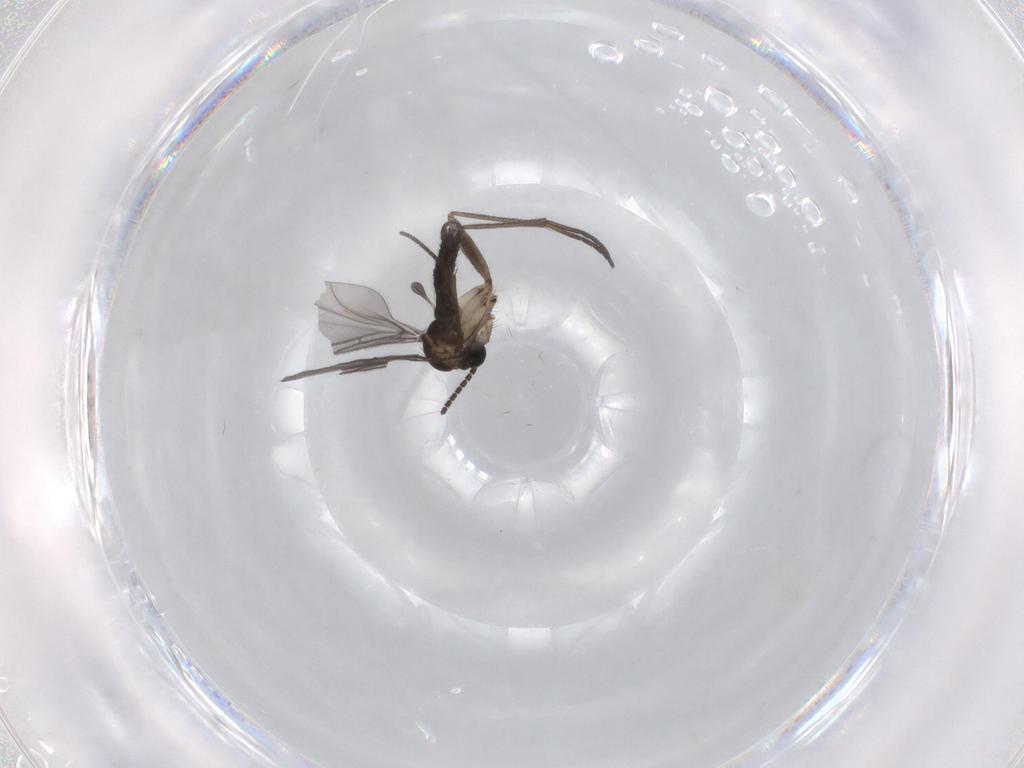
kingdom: Animalia
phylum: Arthropoda
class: Insecta
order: Diptera
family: Sciaridae
